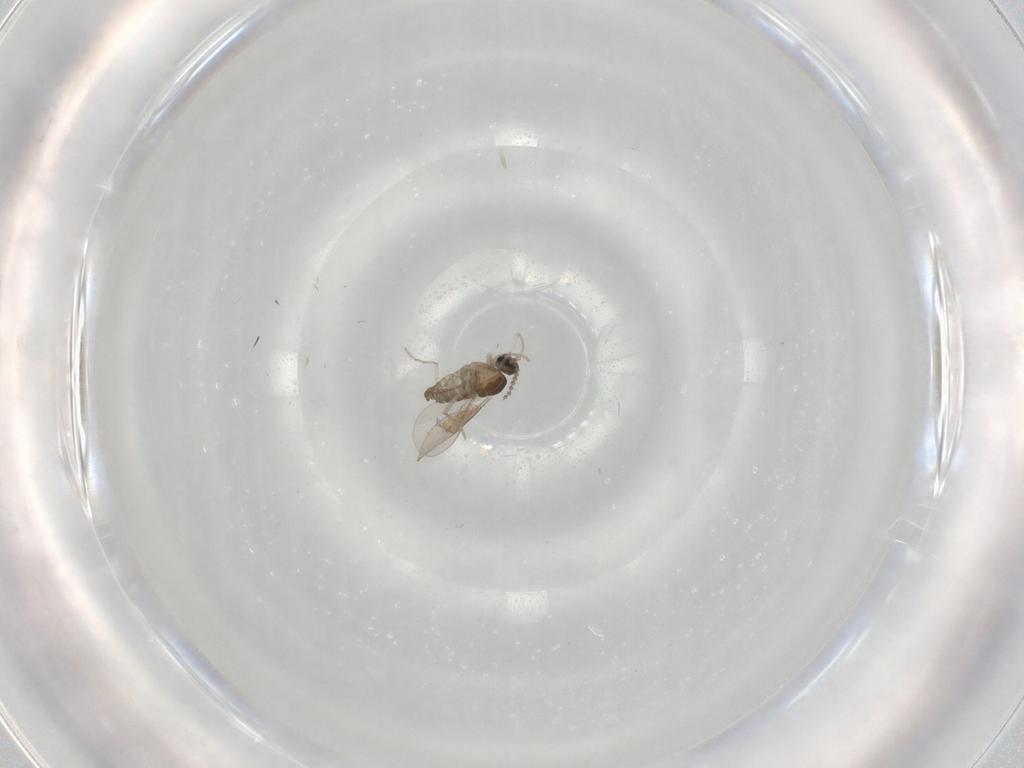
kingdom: Animalia
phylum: Arthropoda
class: Insecta
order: Diptera
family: Cecidomyiidae
